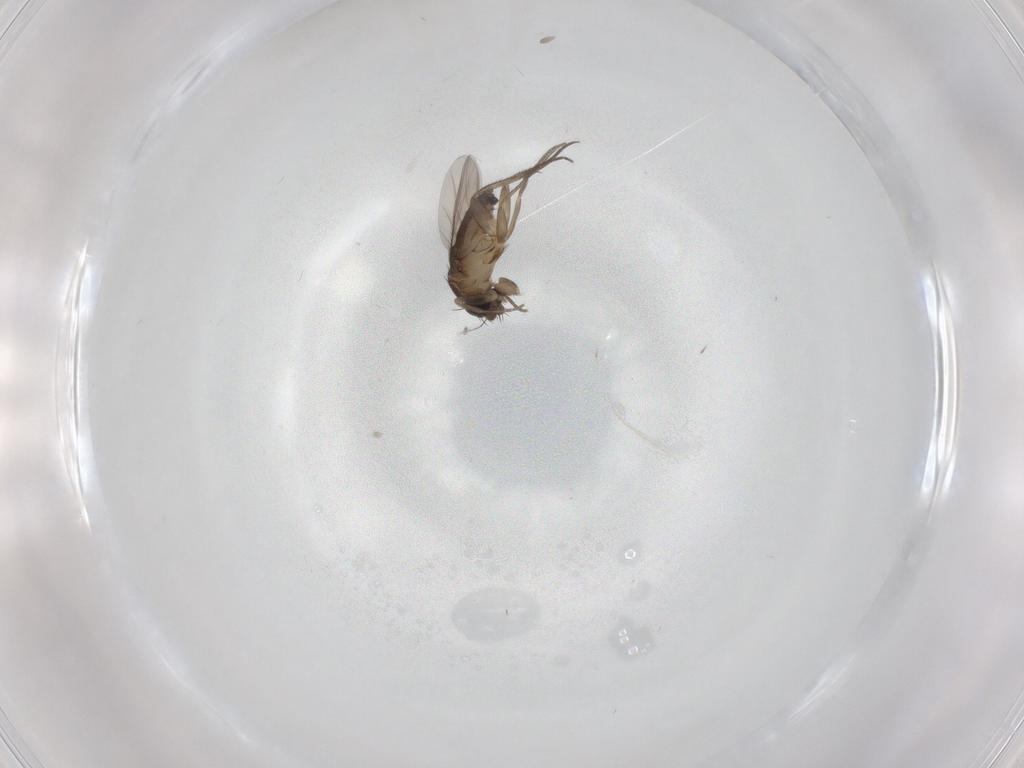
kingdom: Animalia
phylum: Arthropoda
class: Insecta
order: Diptera
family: Phoridae
